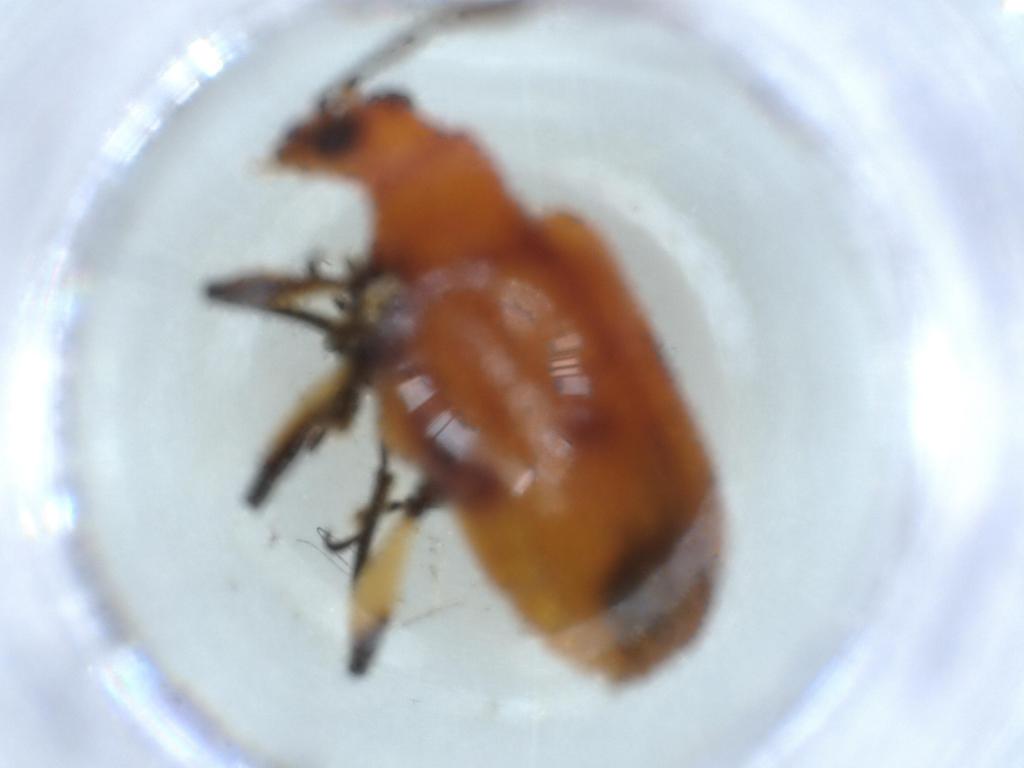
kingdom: Animalia
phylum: Arthropoda
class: Insecta
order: Coleoptera
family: Chrysomelidae
